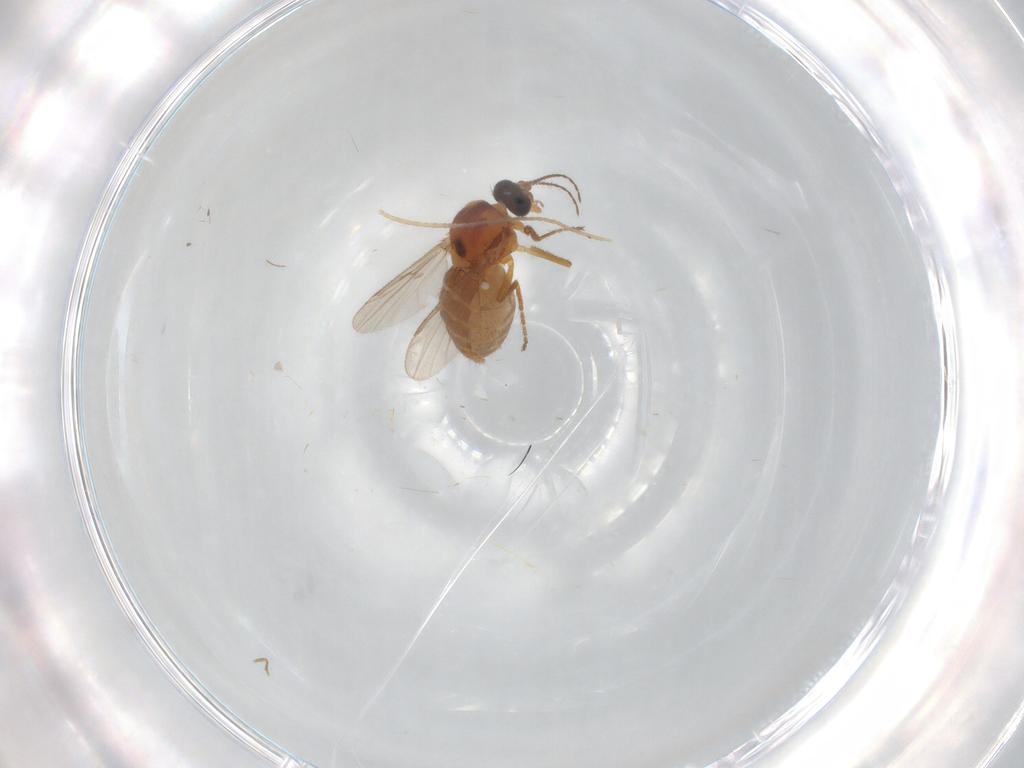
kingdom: Animalia
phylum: Arthropoda
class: Insecta
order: Diptera
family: Ceratopogonidae
